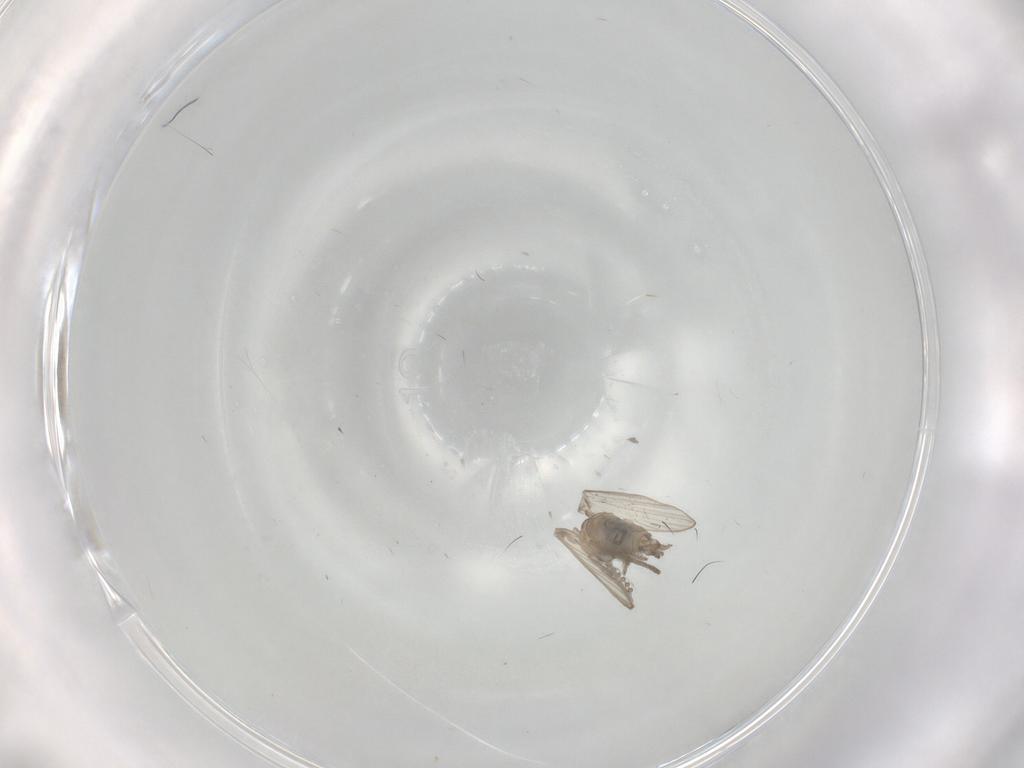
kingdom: Animalia
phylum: Arthropoda
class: Insecta
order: Diptera
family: Psychodidae
